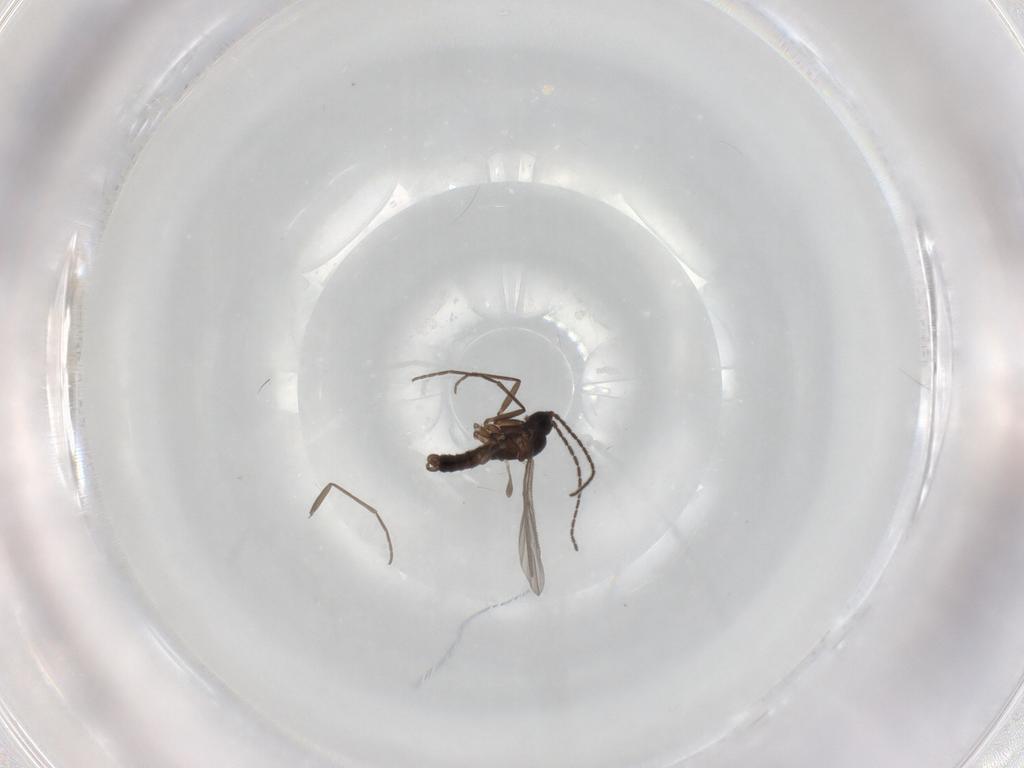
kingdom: Animalia
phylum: Arthropoda
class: Insecta
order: Diptera
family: Sciaridae
